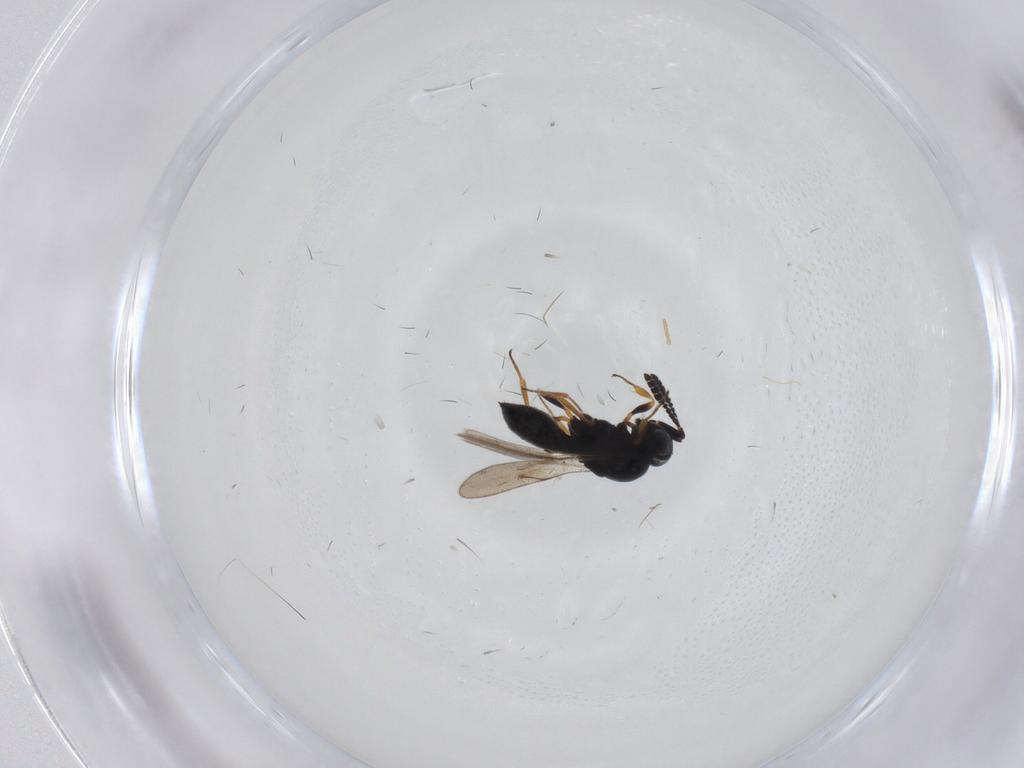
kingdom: Animalia
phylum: Arthropoda
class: Insecta
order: Hymenoptera
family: Scelionidae
